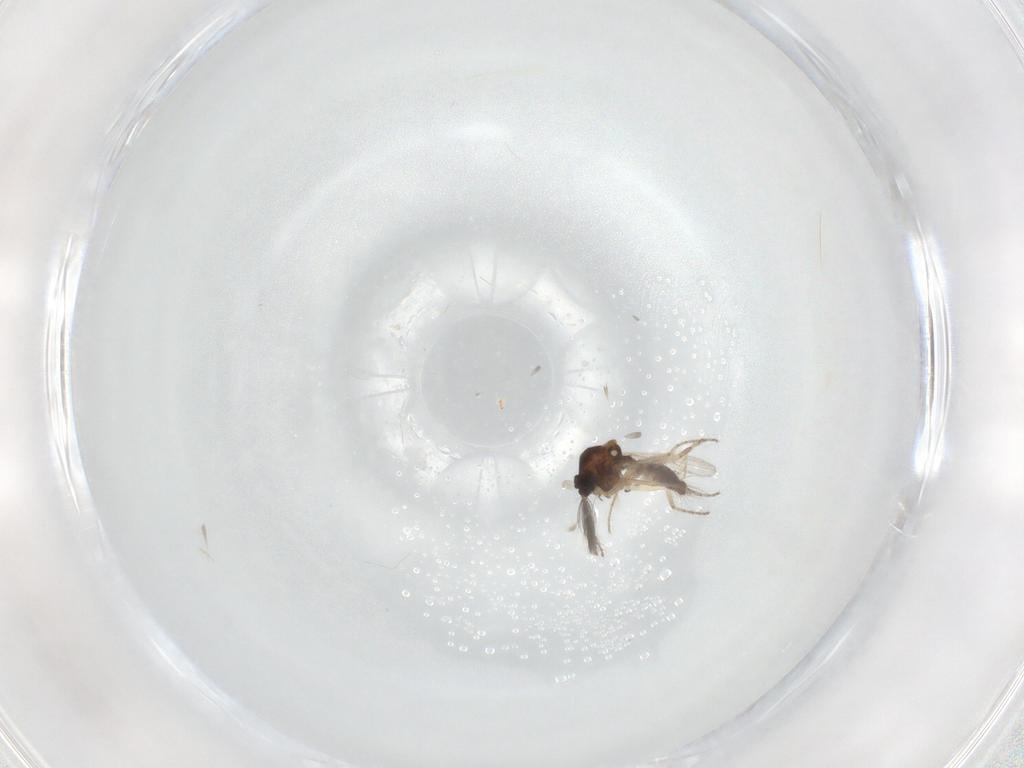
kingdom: Animalia
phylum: Arthropoda
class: Insecta
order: Diptera
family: Ceratopogonidae
